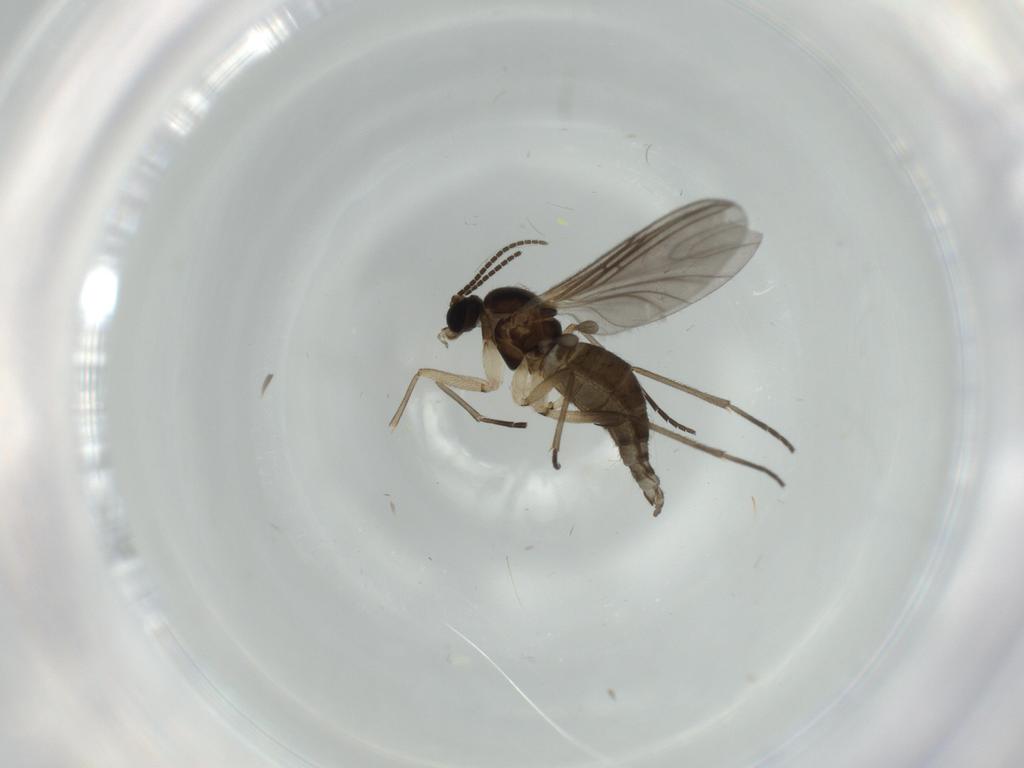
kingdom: Animalia
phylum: Arthropoda
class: Insecta
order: Diptera
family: Sciaridae
